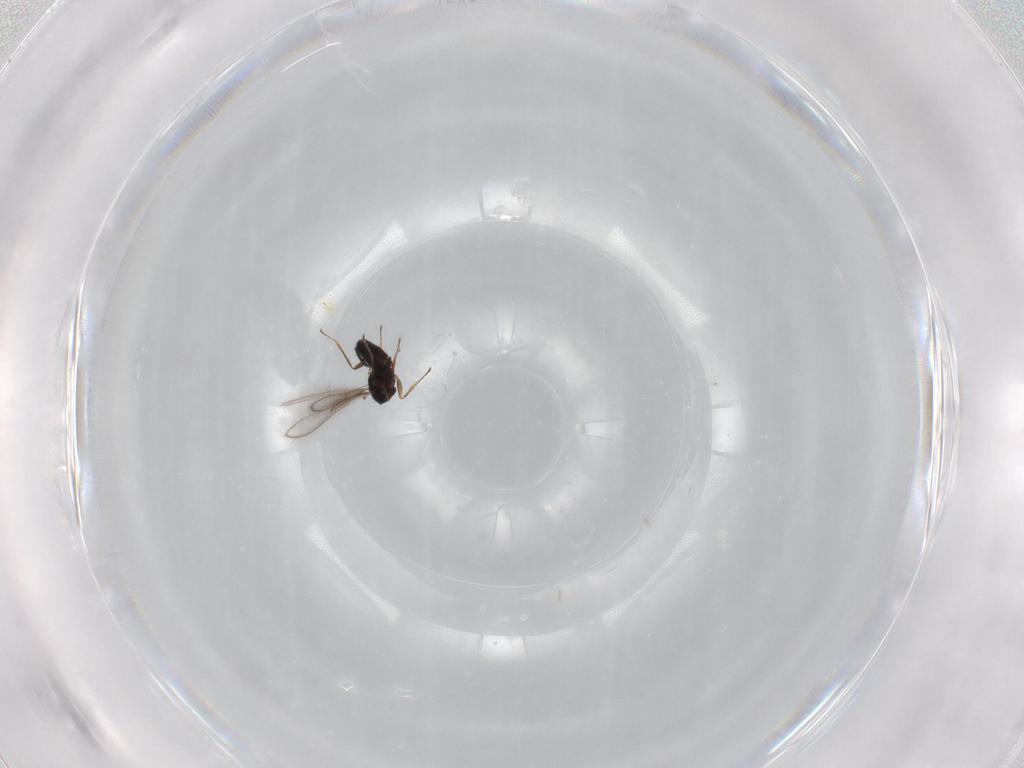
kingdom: Animalia
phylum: Arthropoda
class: Insecta
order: Hymenoptera
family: Mymaridae
